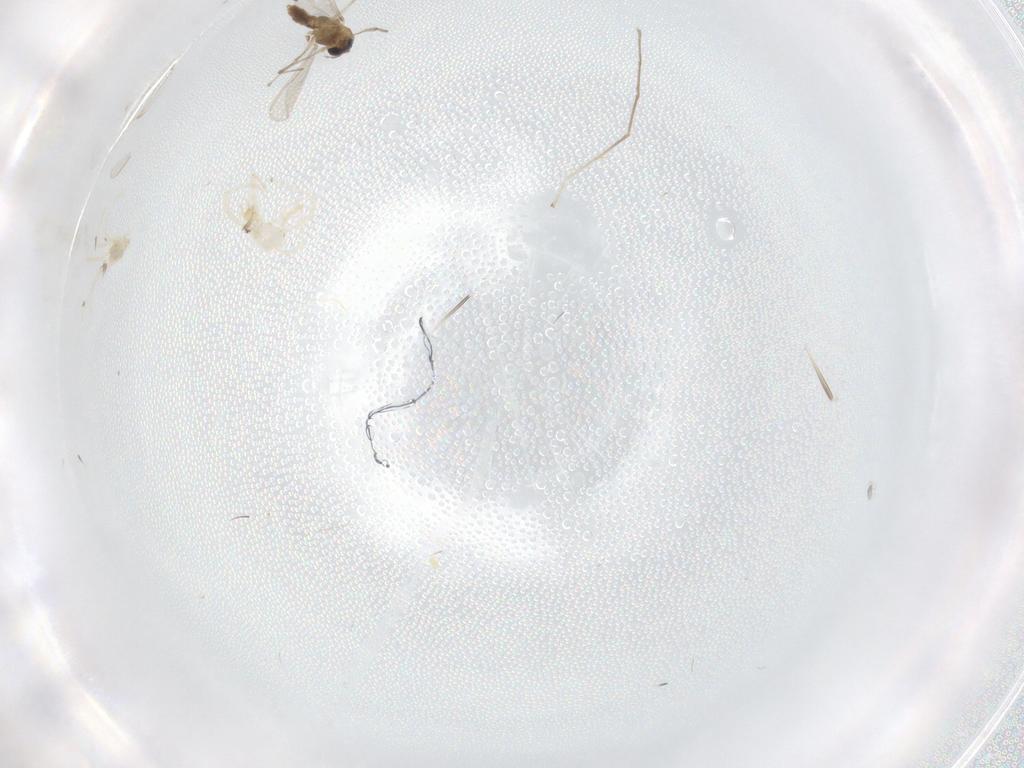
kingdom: Animalia
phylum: Arthropoda
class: Insecta
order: Diptera
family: Chironomidae
